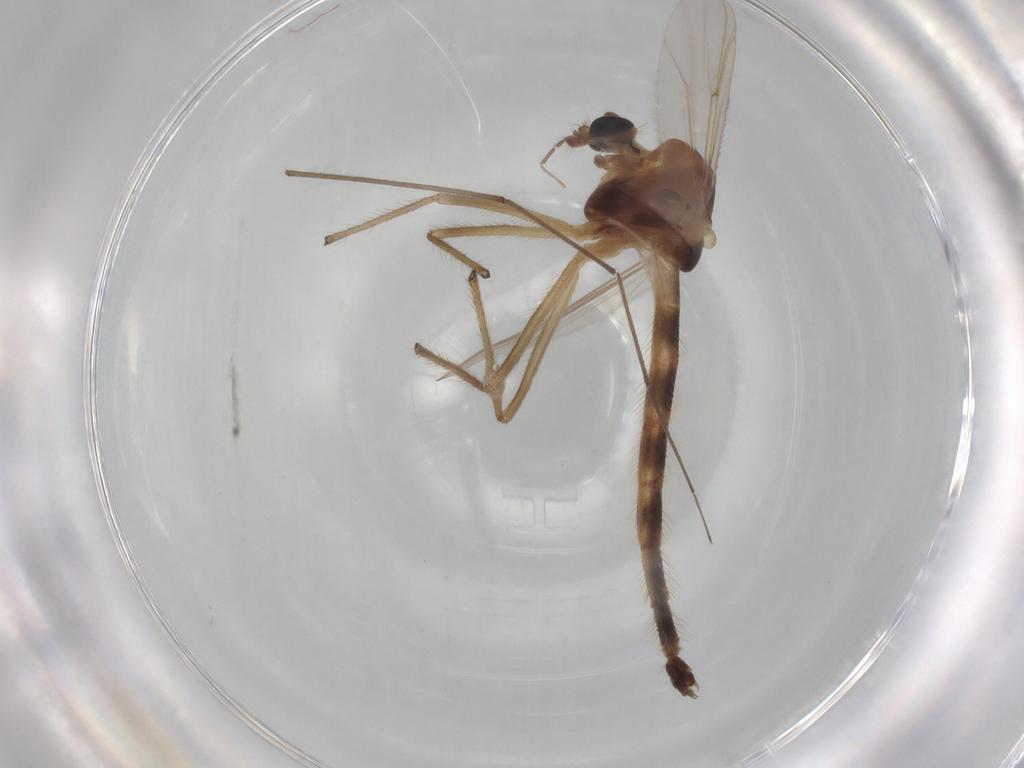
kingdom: Animalia
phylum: Arthropoda
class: Insecta
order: Diptera
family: Chironomidae
